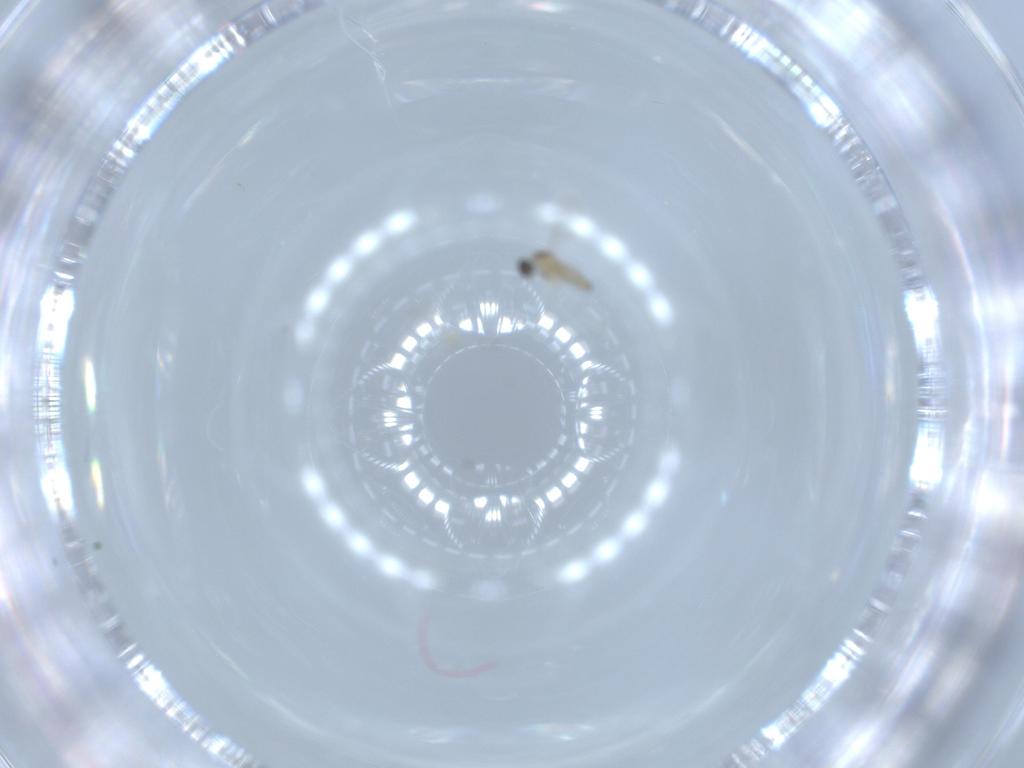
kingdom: Animalia
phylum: Arthropoda
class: Insecta
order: Diptera
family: Cecidomyiidae
